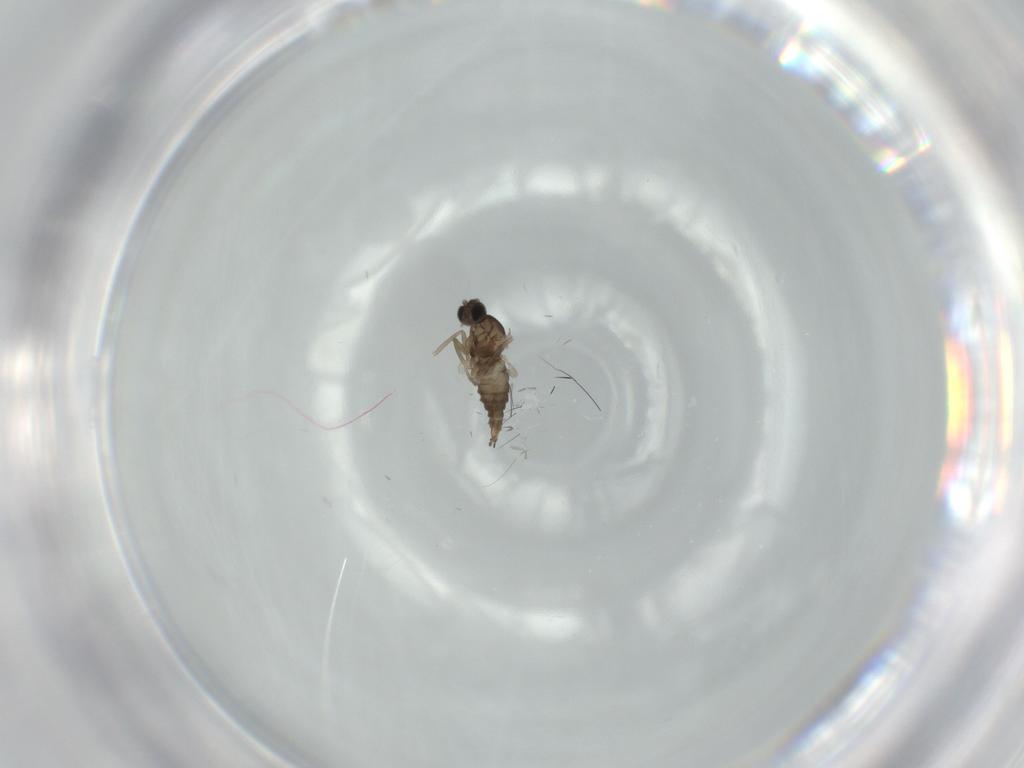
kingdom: Animalia
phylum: Arthropoda
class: Insecta
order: Diptera
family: Cecidomyiidae
